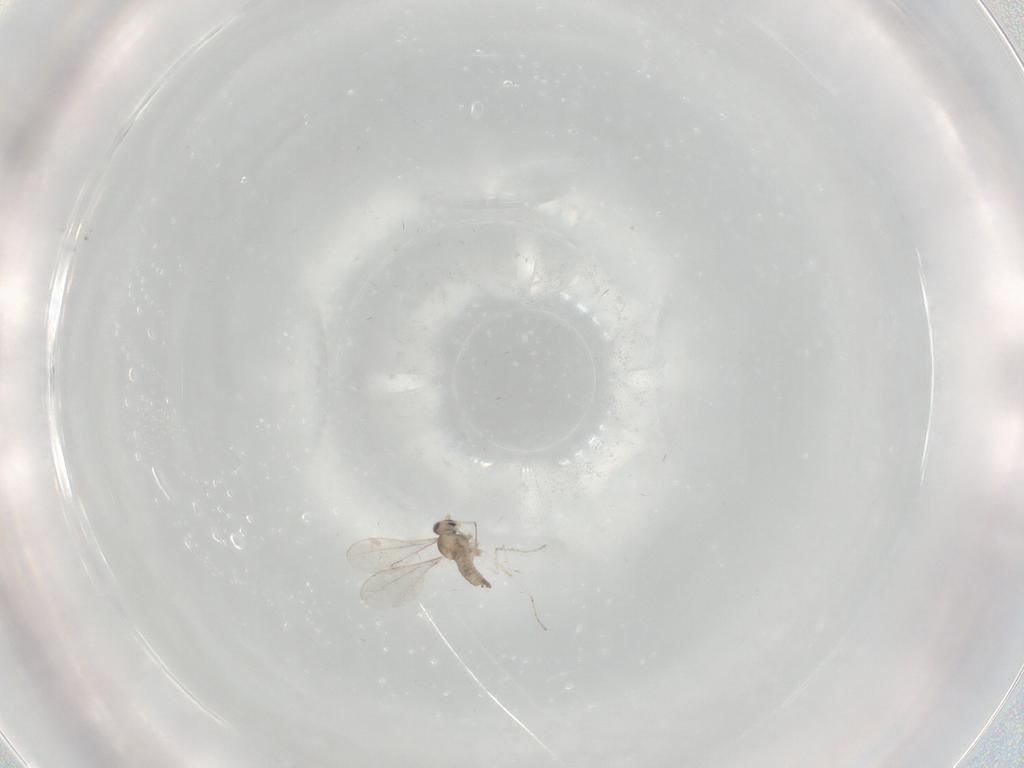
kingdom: Animalia
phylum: Arthropoda
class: Insecta
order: Diptera
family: Cecidomyiidae
